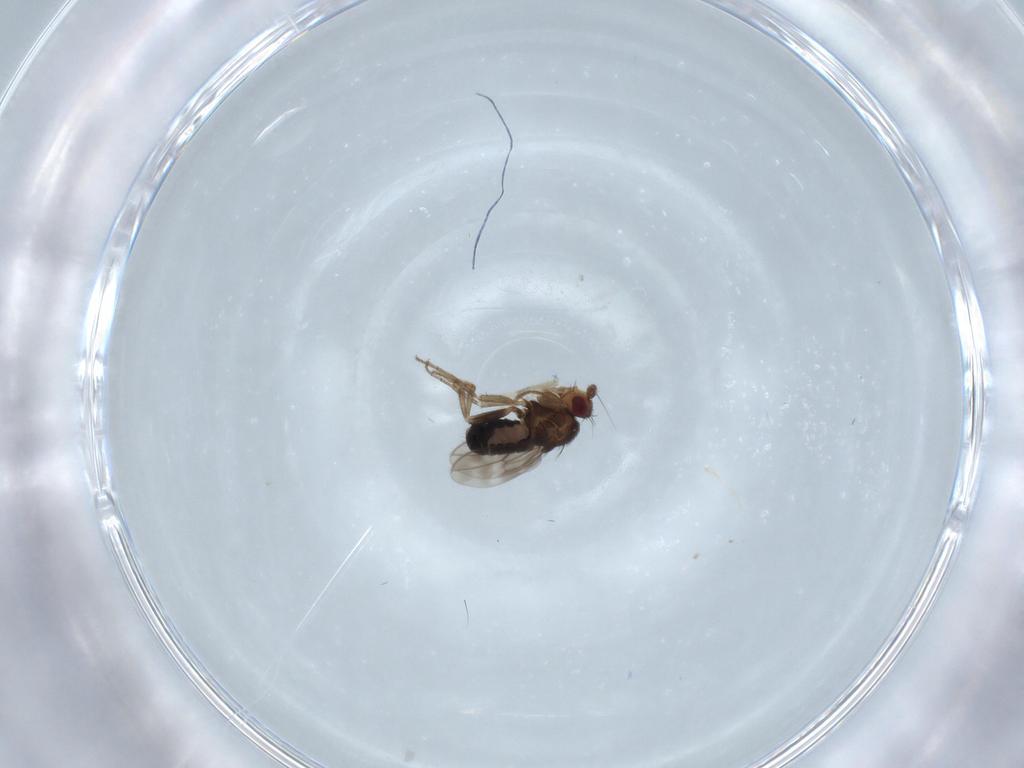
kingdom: Animalia
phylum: Arthropoda
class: Insecta
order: Diptera
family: Sphaeroceridae
